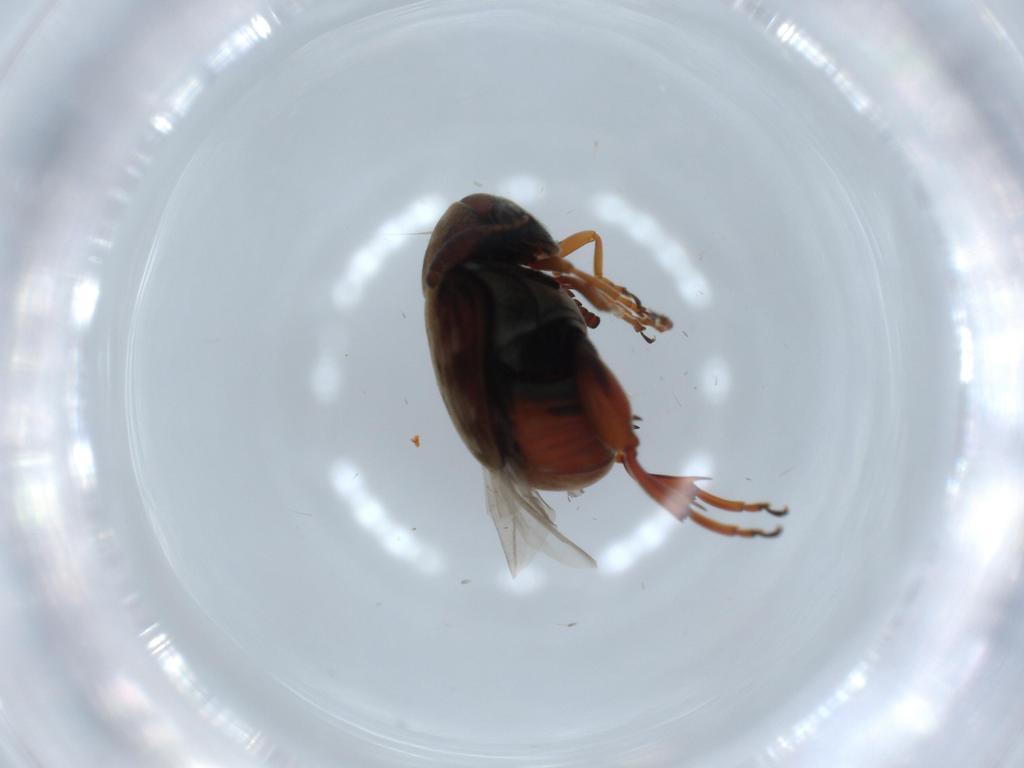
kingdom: Animalia
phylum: Arthropoda
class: Insecta
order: Coleoptera
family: Chrysomelidae
